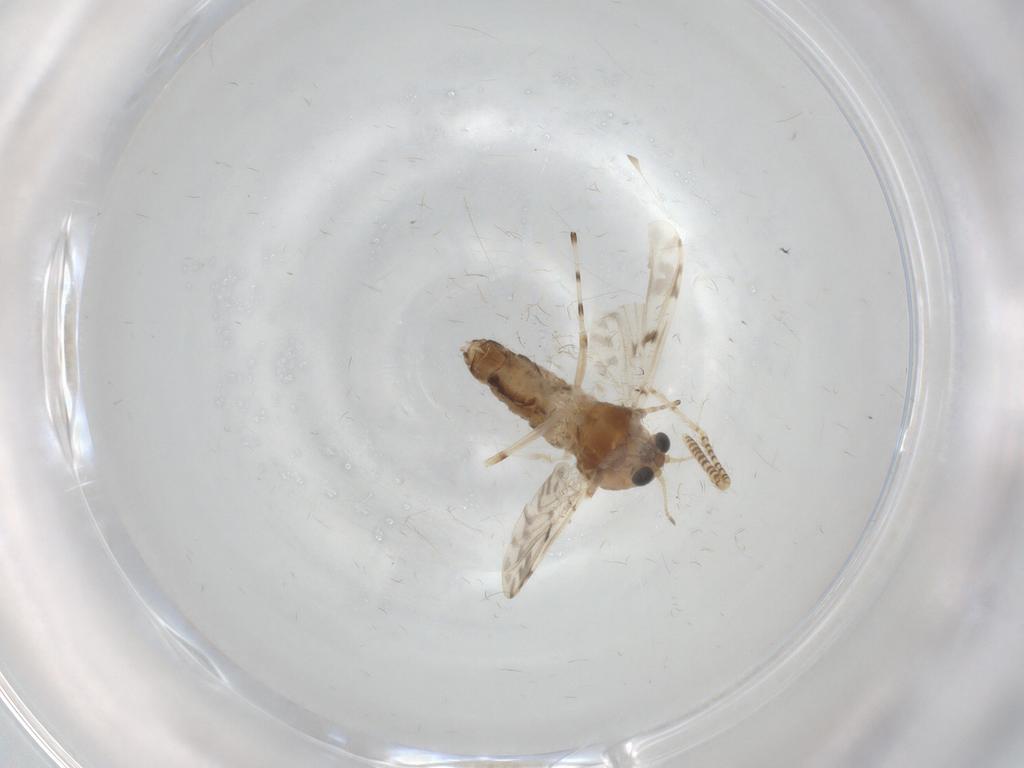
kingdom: Animalia
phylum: Arthropoda
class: Insecta
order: Diptera
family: Chironomidae
